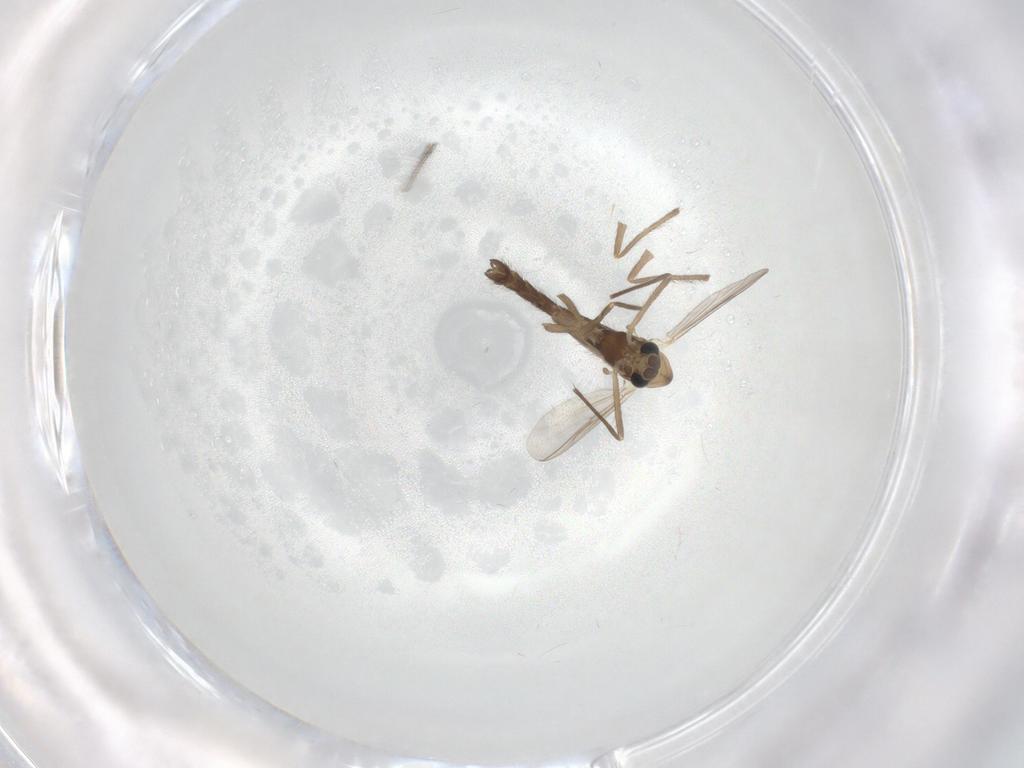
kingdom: Animalia
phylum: Arthropoda
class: Insecta
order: Diptera
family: Chironomidae
